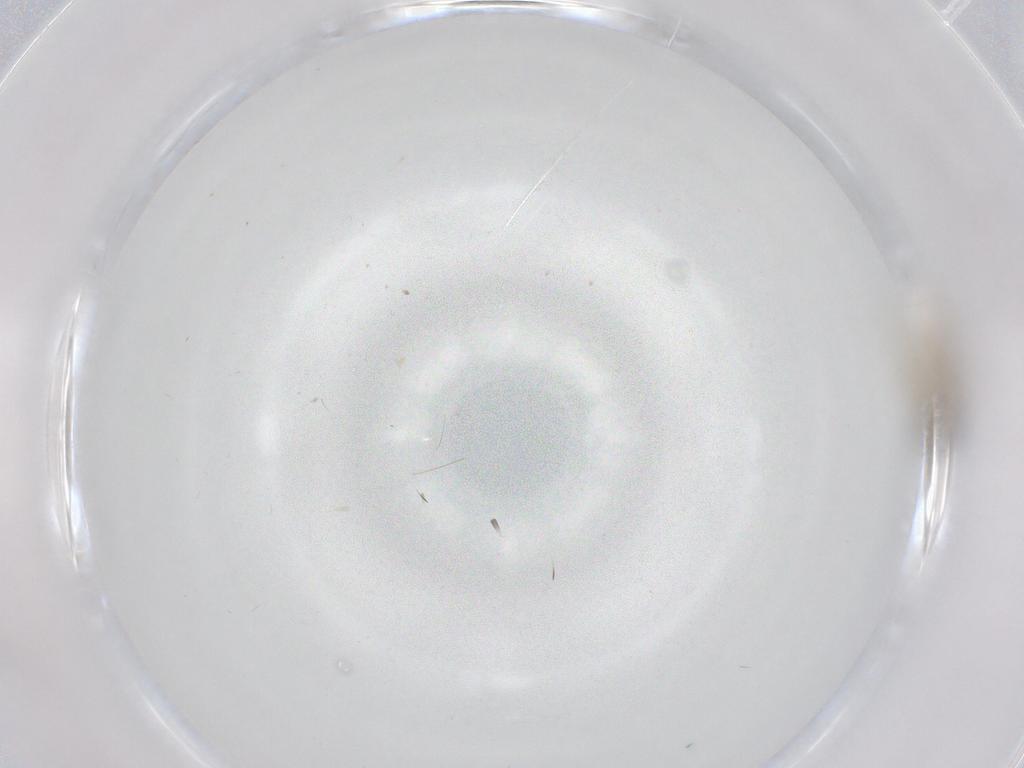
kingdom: Animalia
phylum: Arthropoda
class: Insecta
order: Diptera
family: Cecidomyiidae
